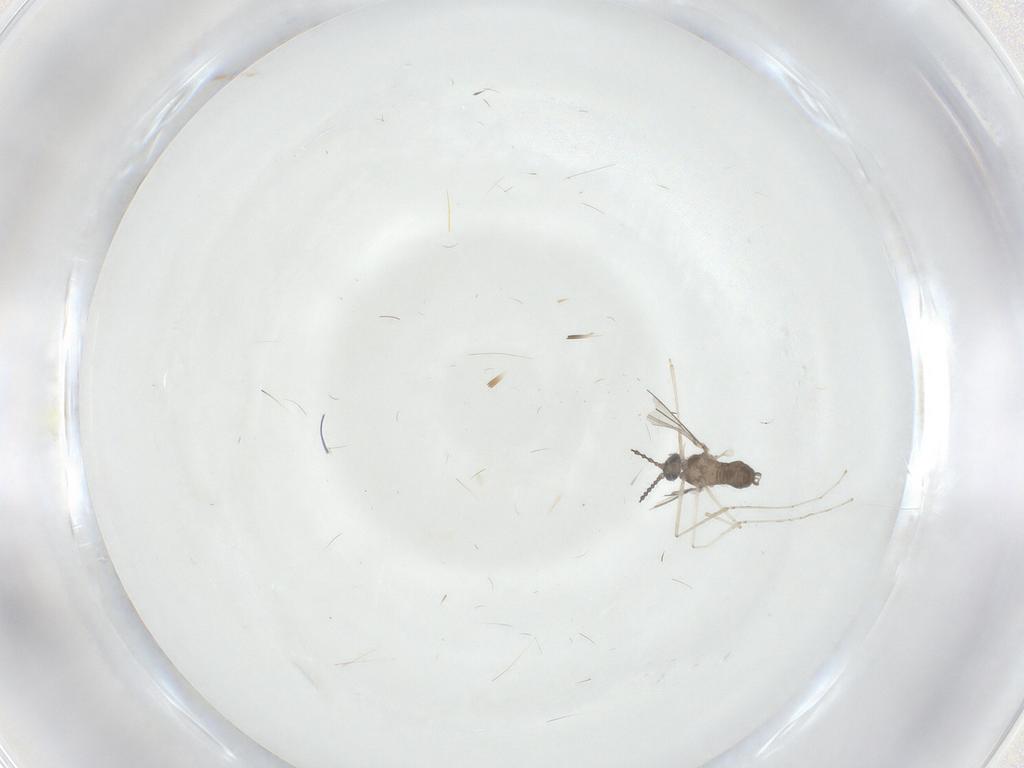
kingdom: Animalia
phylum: Arthropoda
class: Insecta
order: Diptera
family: Cecidomyiidae
